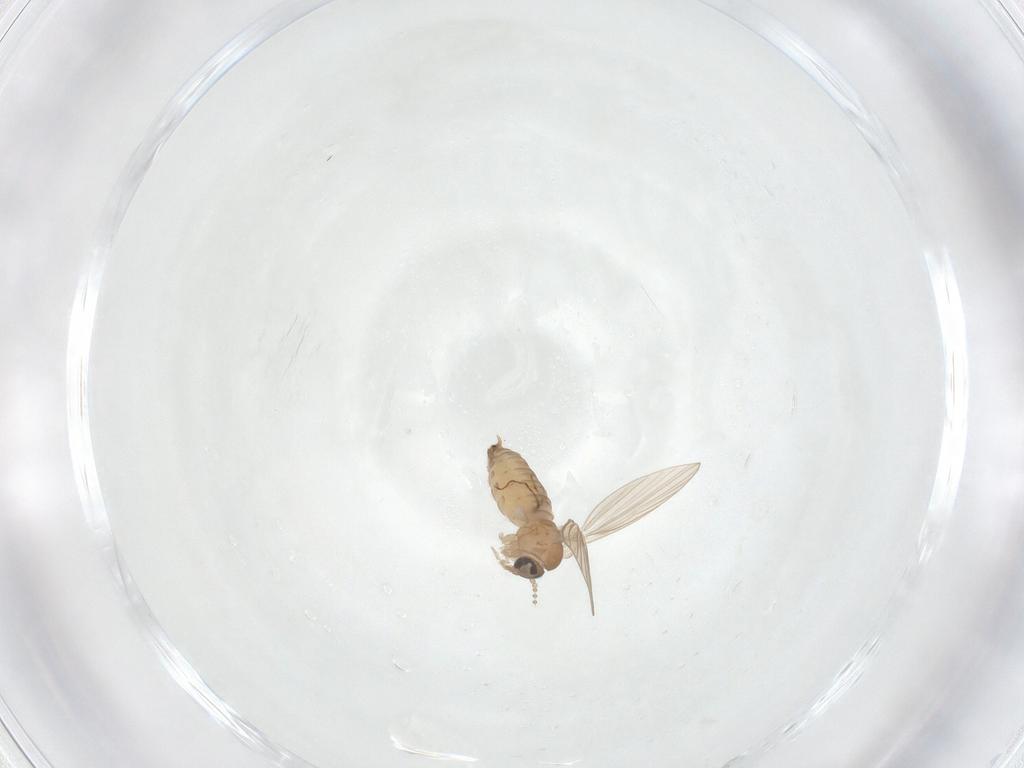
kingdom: Animalia
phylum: Arthropoda
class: Insecta
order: Diptera
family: Psychodidae
